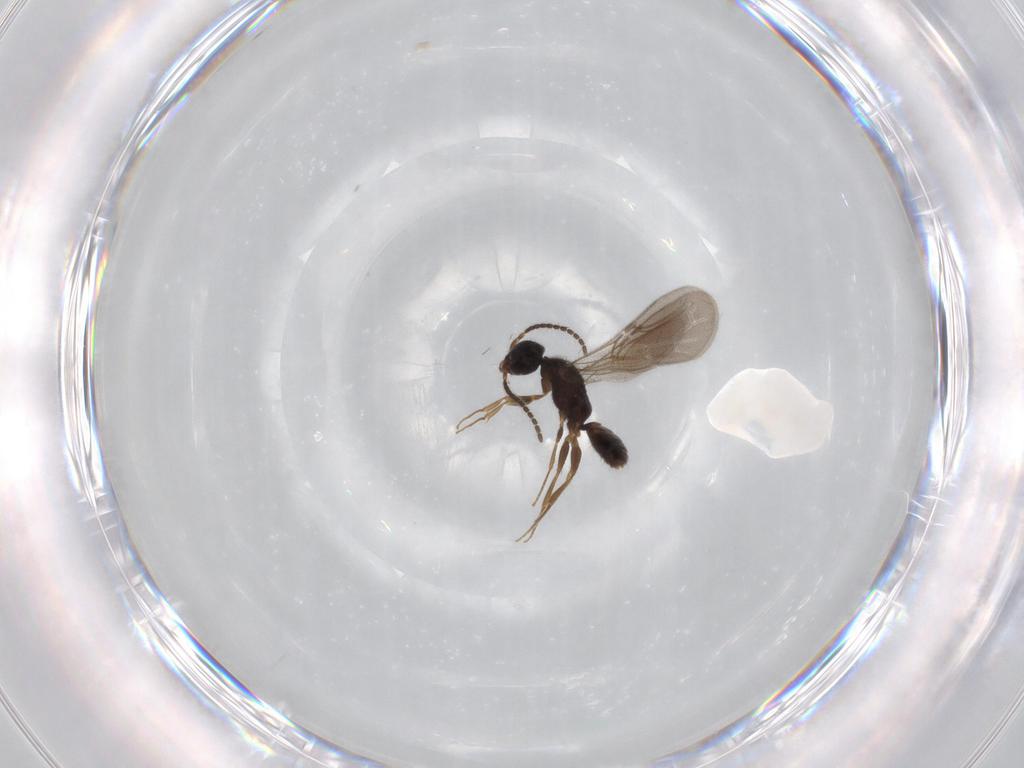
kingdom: Animalia
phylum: Arthropoda
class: Insecta
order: Hymenoptera
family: Bethylidae
